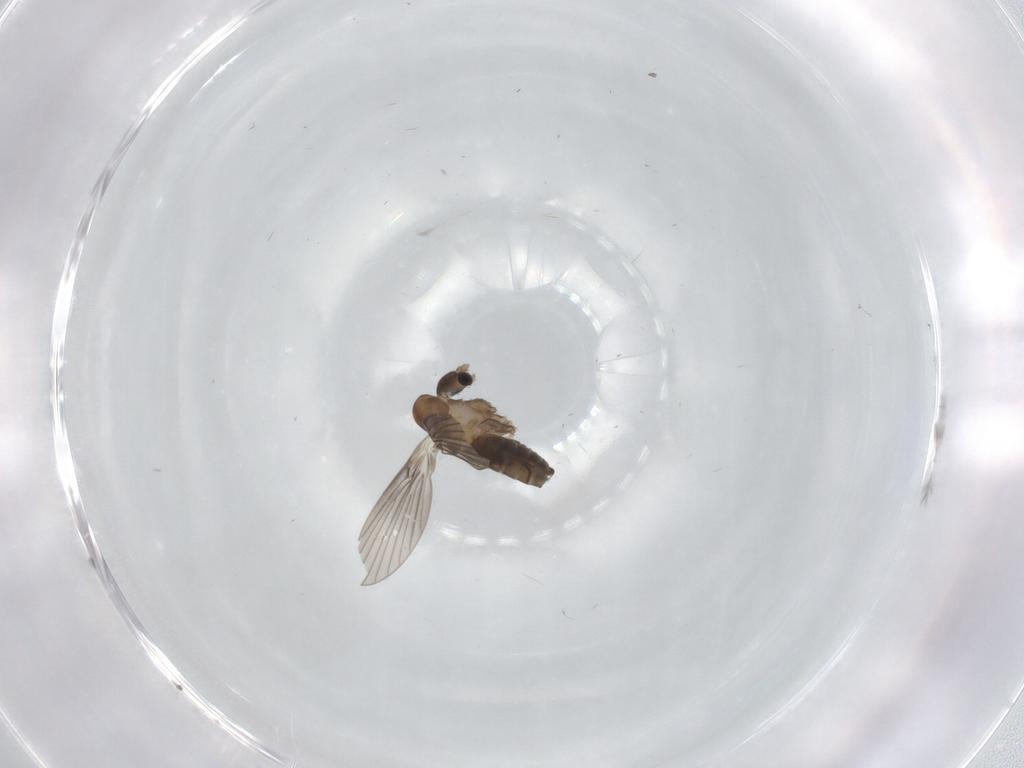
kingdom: Animalia
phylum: Arthropoda
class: Insecta
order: Diptera
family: Psychodidae
